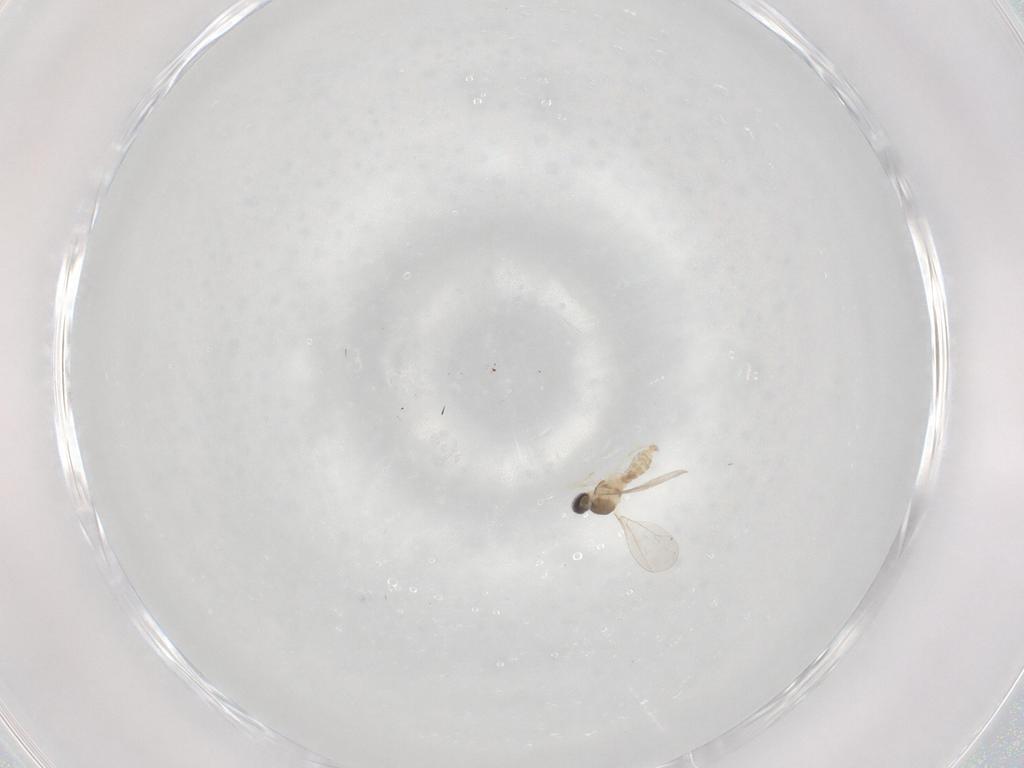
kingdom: Animalia
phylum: Arthropoda
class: Insecta
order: Diptera
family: Cecidomyiidae
